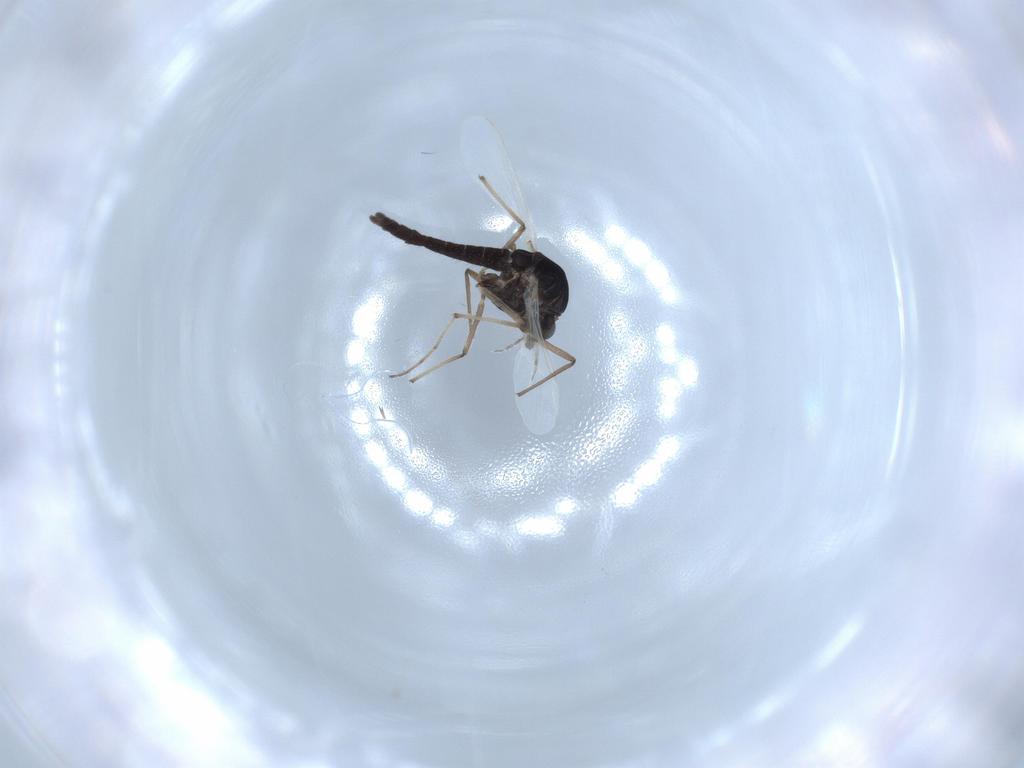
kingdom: Animalia
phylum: Arthropoda
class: Insecta
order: Diptera
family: Chironomidae
